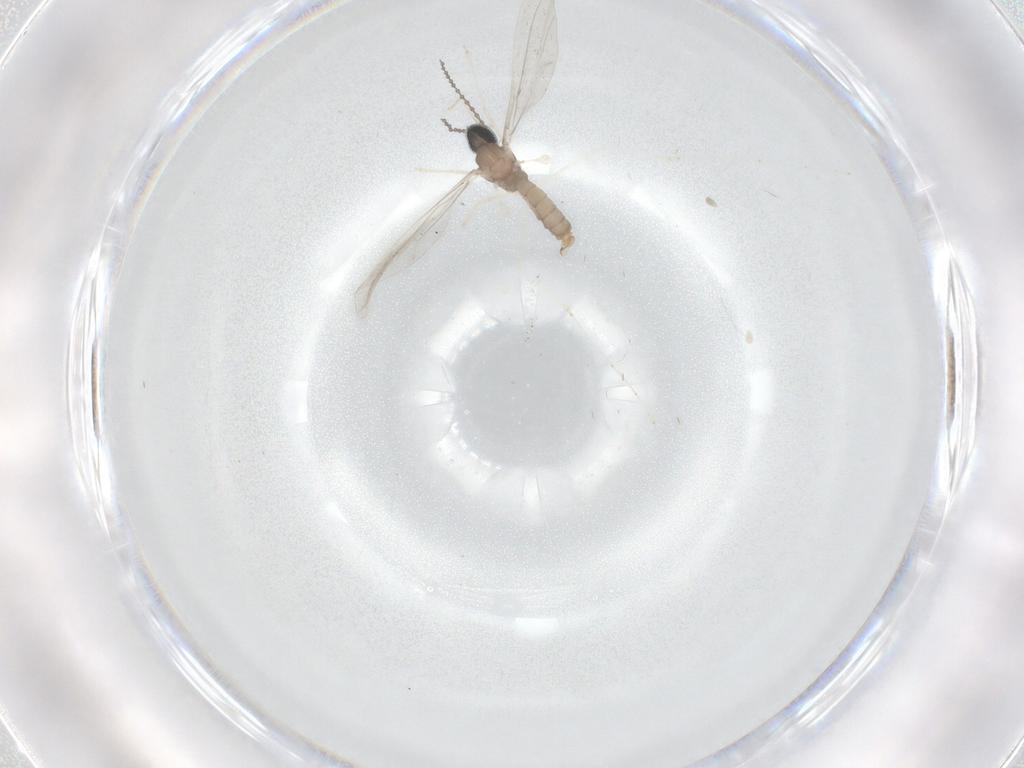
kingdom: Animalia
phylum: Arthropoda
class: Insecta
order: Diptera
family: Cecidomyiidae
